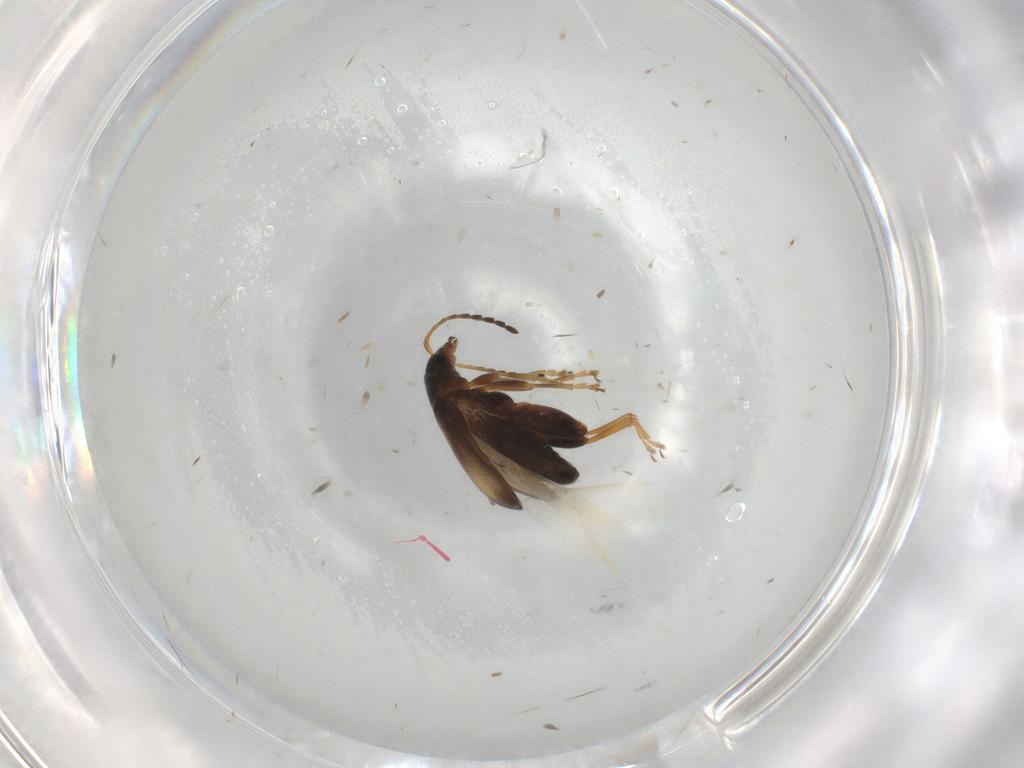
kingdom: Animalia
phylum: Arthropoda
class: Insecta
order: Coleoptera
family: Chrysomelidae
